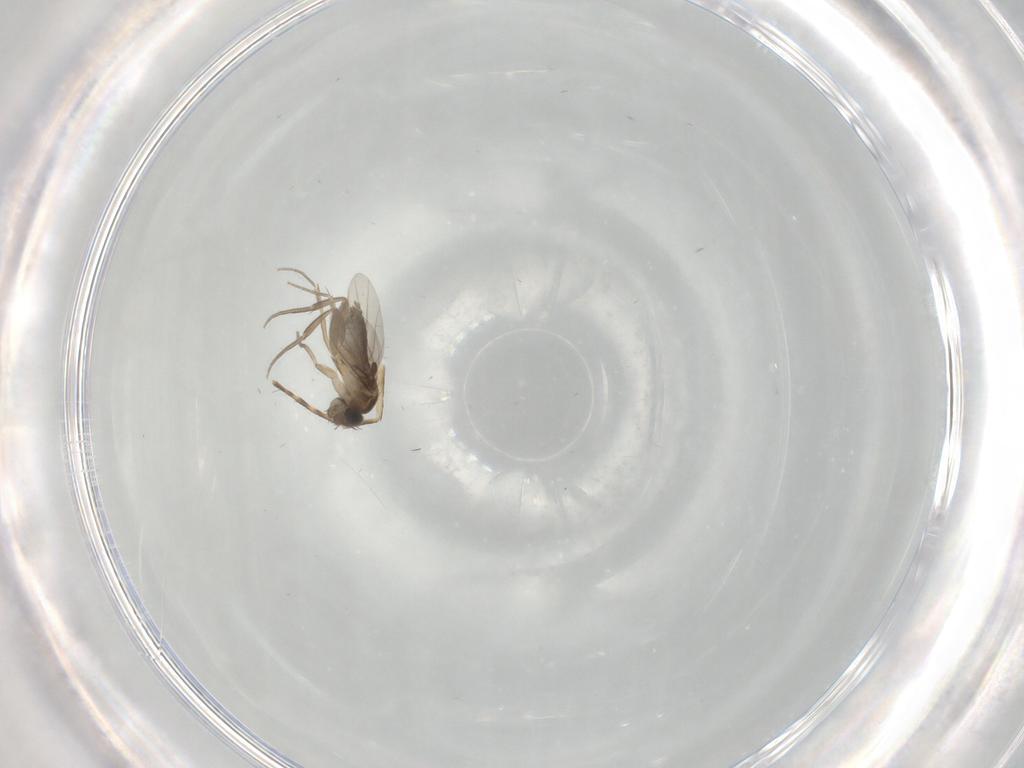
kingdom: Animalia
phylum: Arthropoda
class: Insecta
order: Diptera
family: Phoridae
